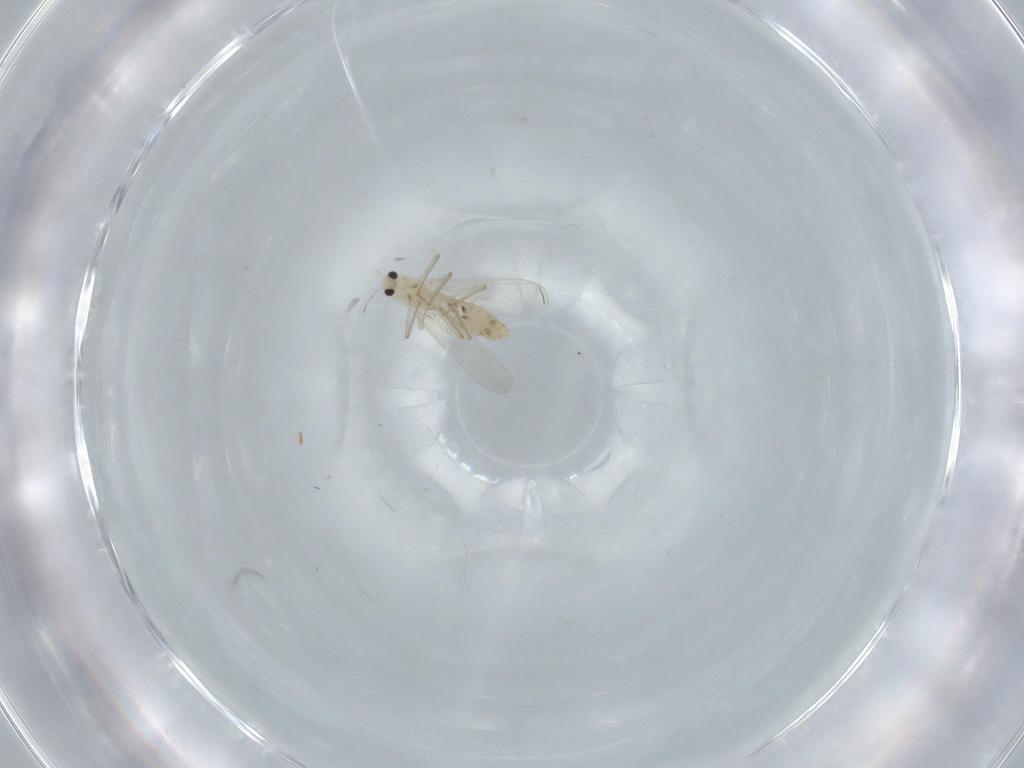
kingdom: Animalia
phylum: Arthropoda
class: Insecta
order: Diptera
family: Chironomidae
